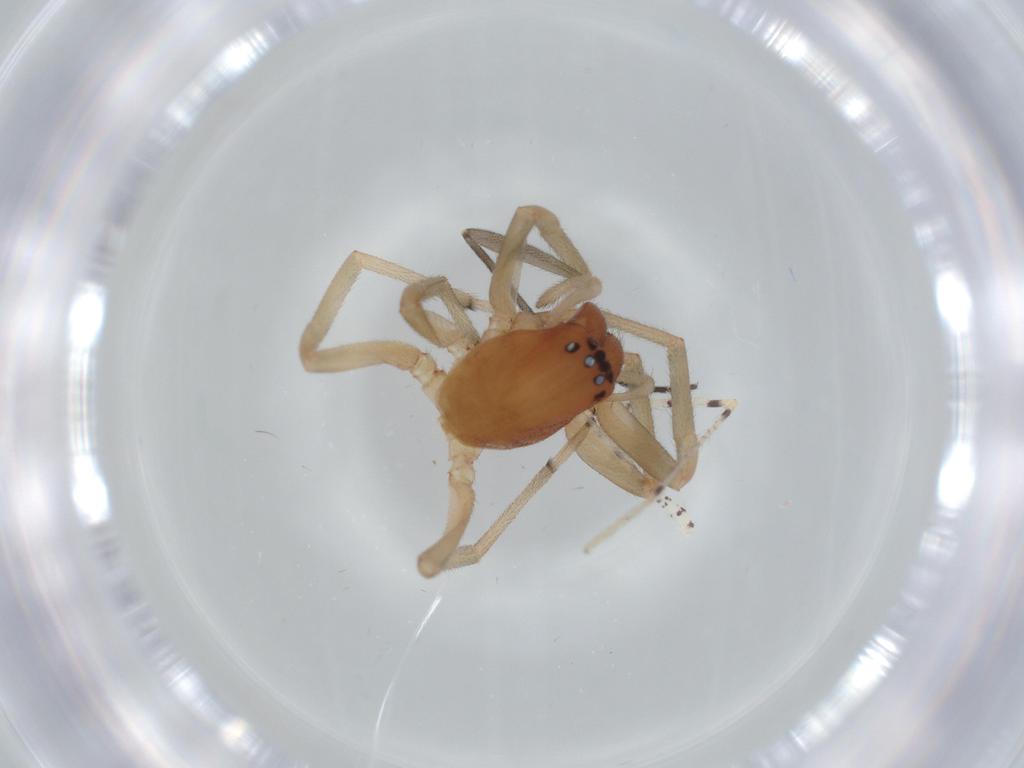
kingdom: Animalia
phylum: Arthropoda
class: Arachnida
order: Araneae
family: Trachelidae
